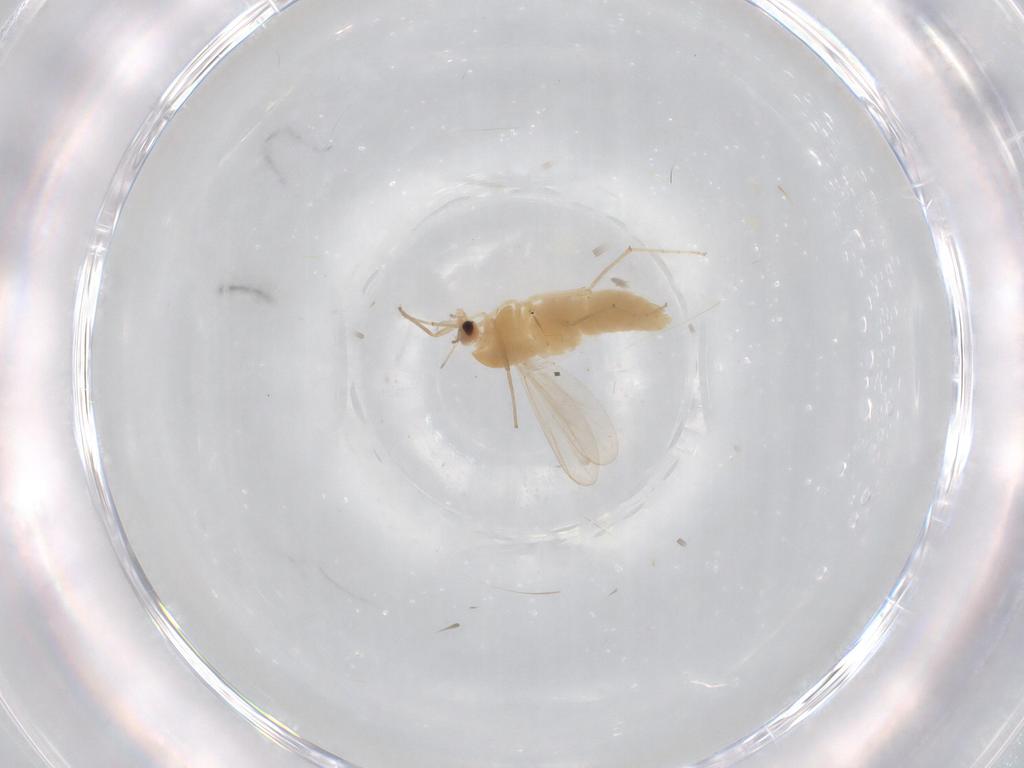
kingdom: Animalia
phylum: Arthropoda
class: Insecta
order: Diptera
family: Chironomidae
